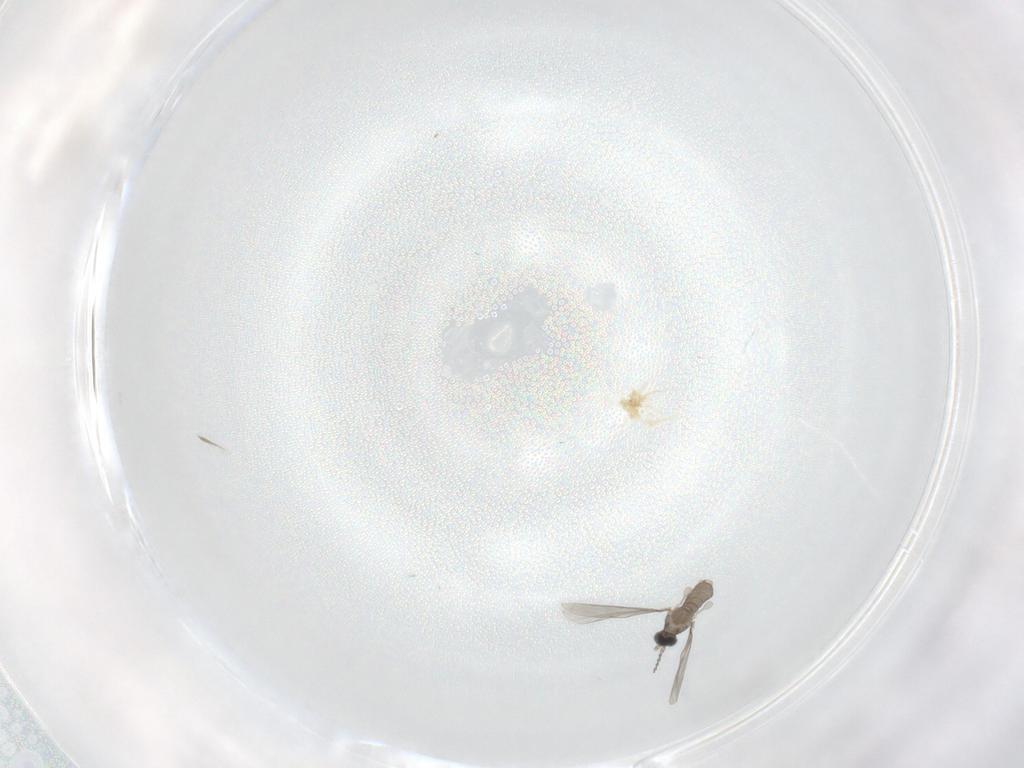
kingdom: Animalia
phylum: Arthropoda
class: Insecta
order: Diptera
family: Cecidomyiidae
